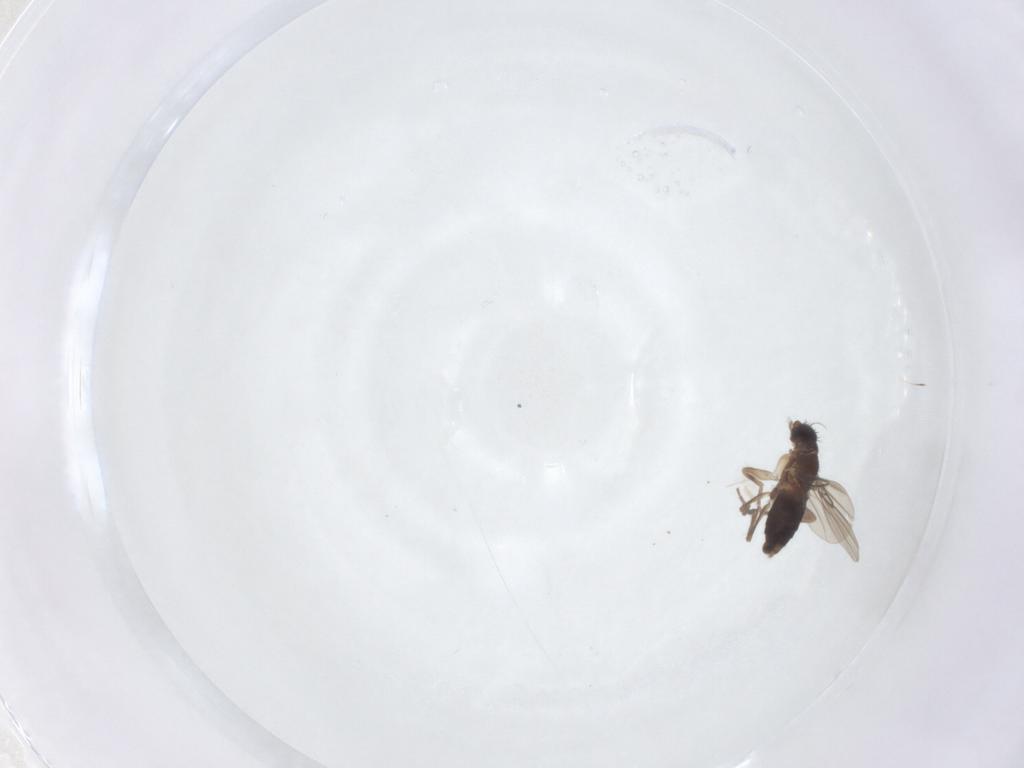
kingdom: Animalia
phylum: Arthropoda
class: Insecta
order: Diptera
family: Phoridae
